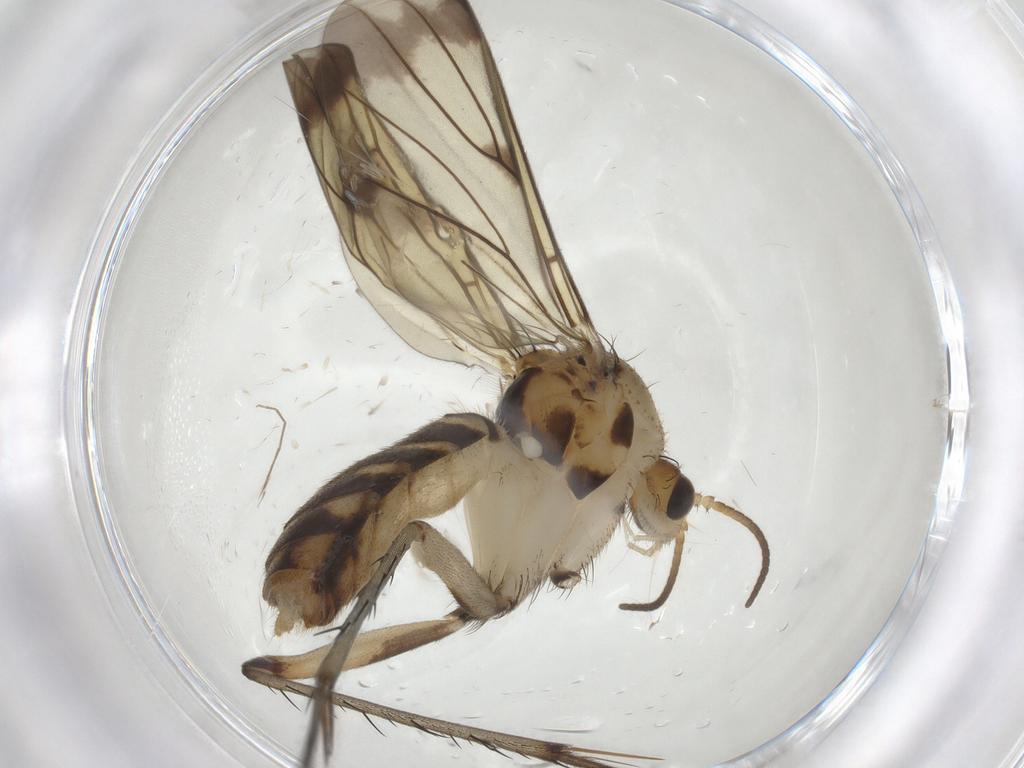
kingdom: Animalia
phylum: Arthropoda
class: Insecta
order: Diptera
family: Mycetophilidae
